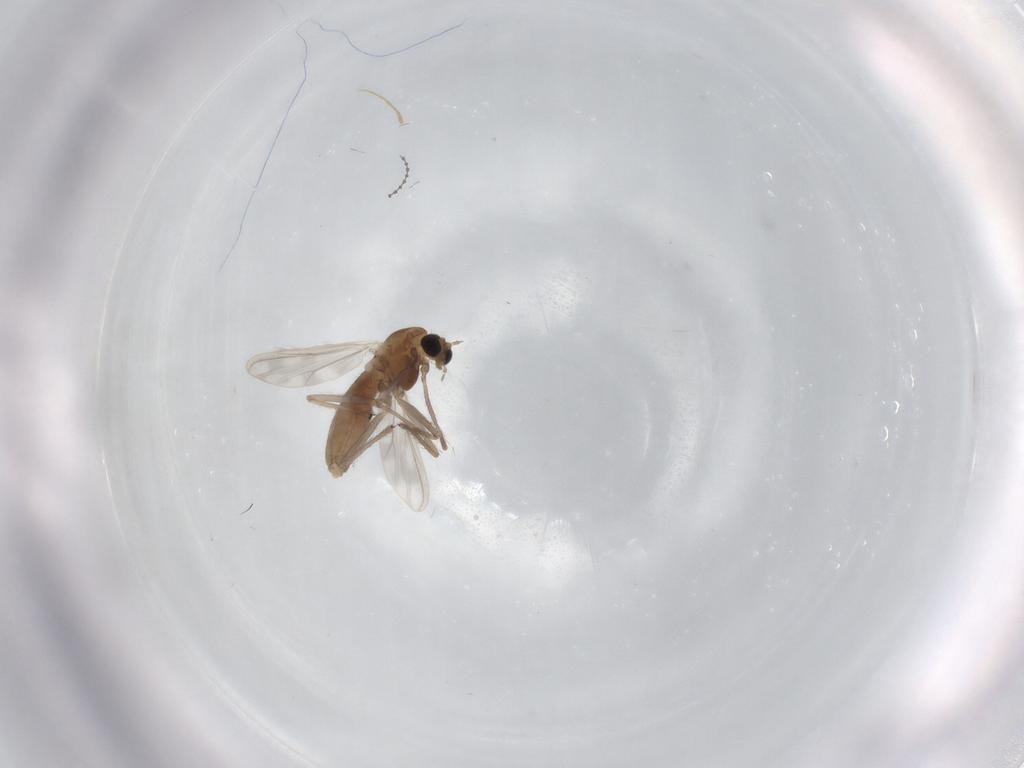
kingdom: Animalia
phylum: Arthropoda
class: Insecta
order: Diptera
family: Chironomidae
